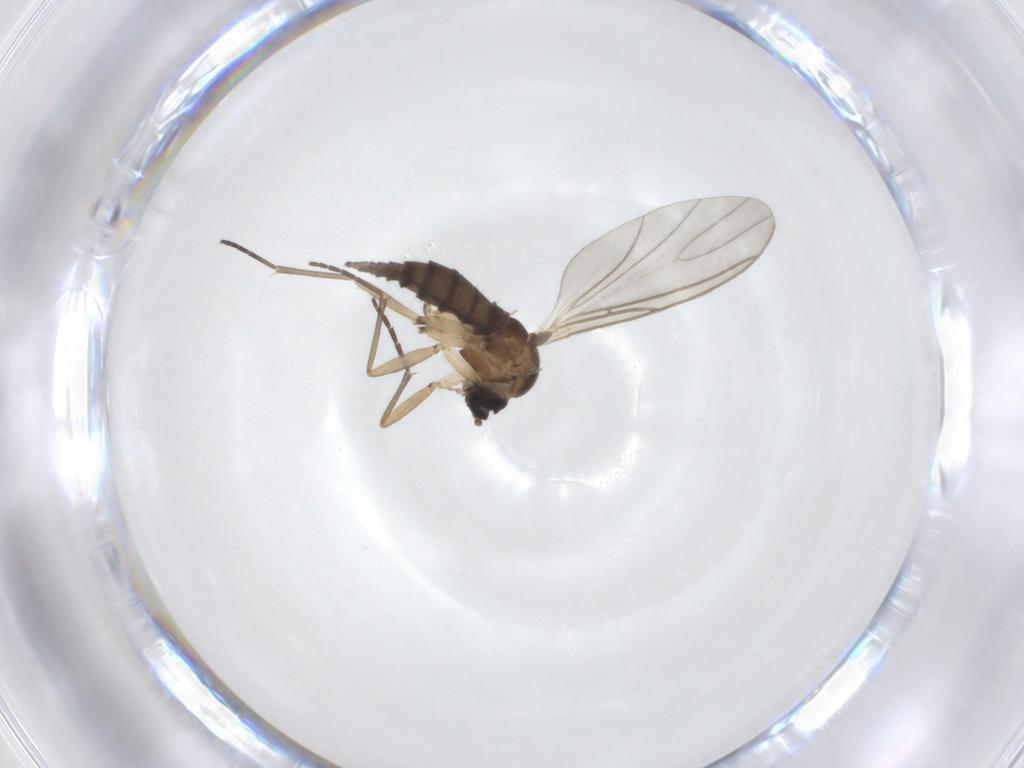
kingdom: Animalia
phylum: Arthropoda
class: Insecta
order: Diptera
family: Sciaridae
